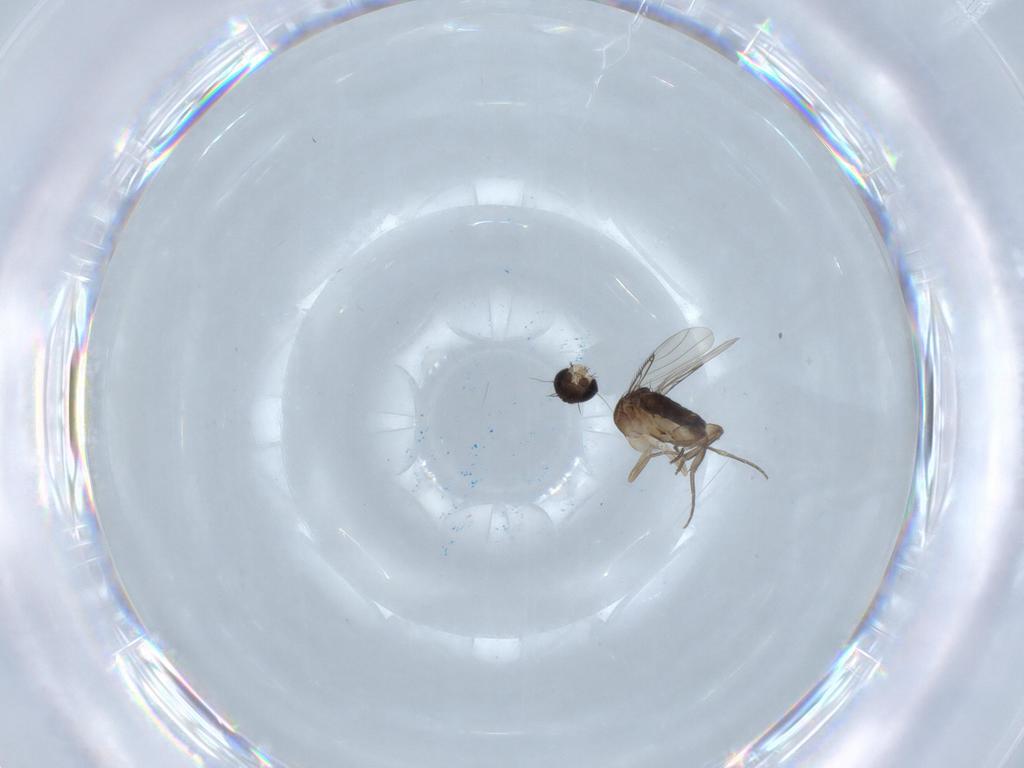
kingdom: Animalia
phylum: Arthropoda
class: Insecta
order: Diptera
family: Phoridae
